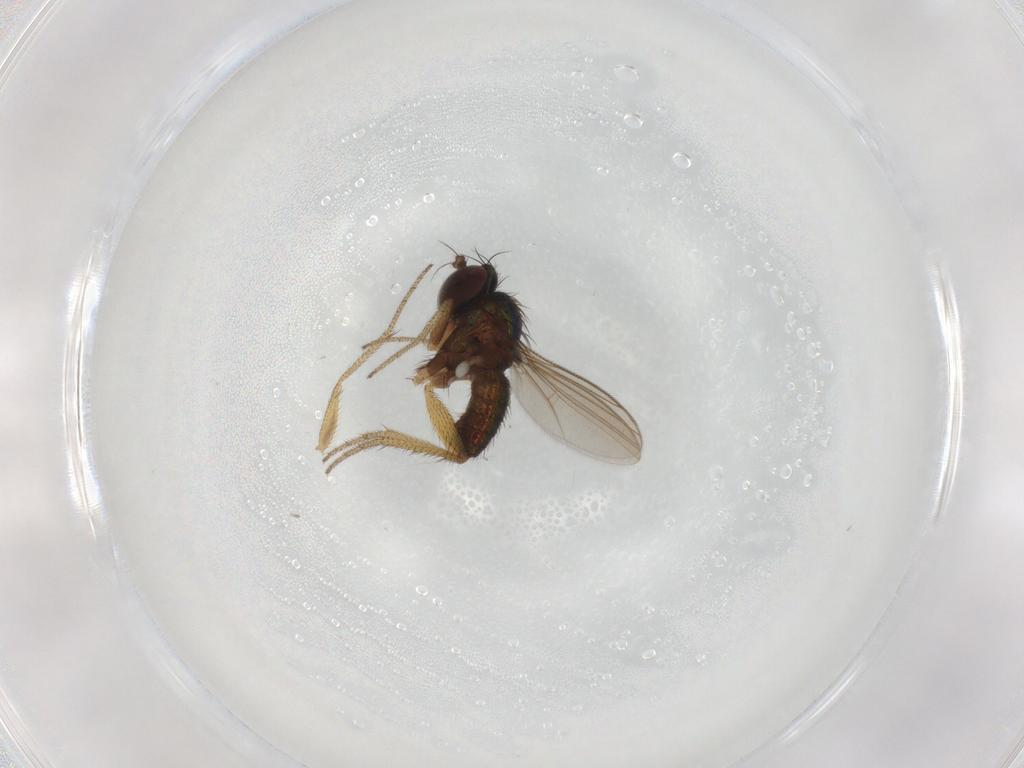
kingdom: Animalia
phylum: Arthropoda
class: Insecta
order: Diptera
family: Dolichopodidae
